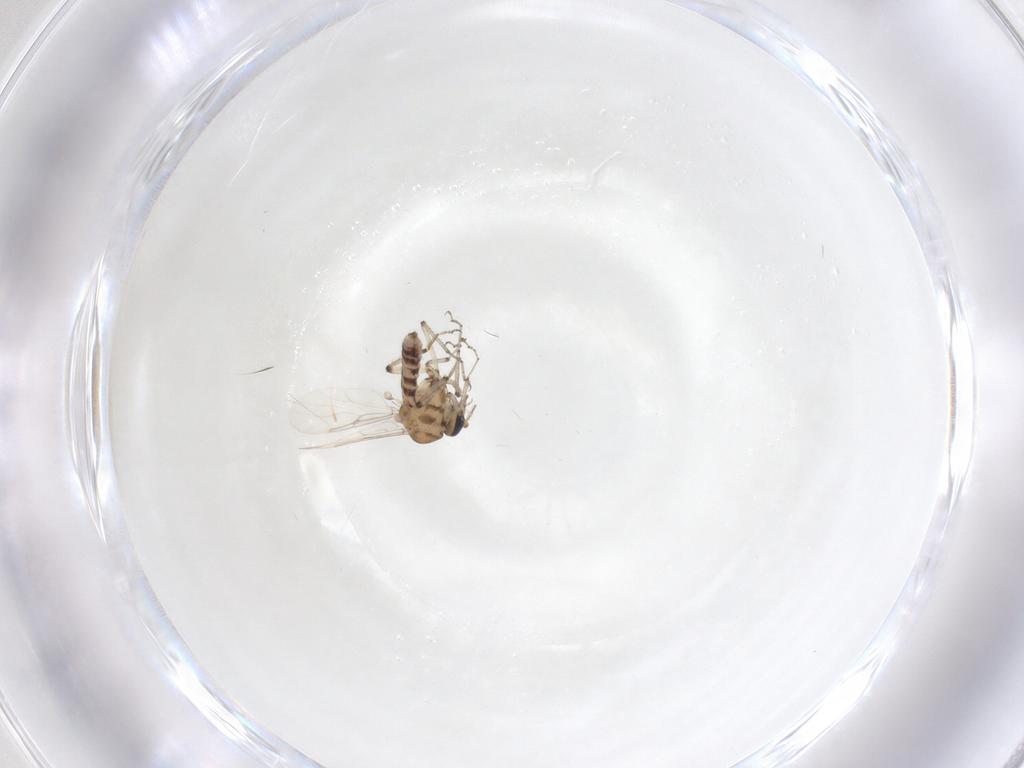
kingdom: Animalia
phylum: Arthropoda
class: Insecta
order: Diptera
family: Ceratopogonidae
